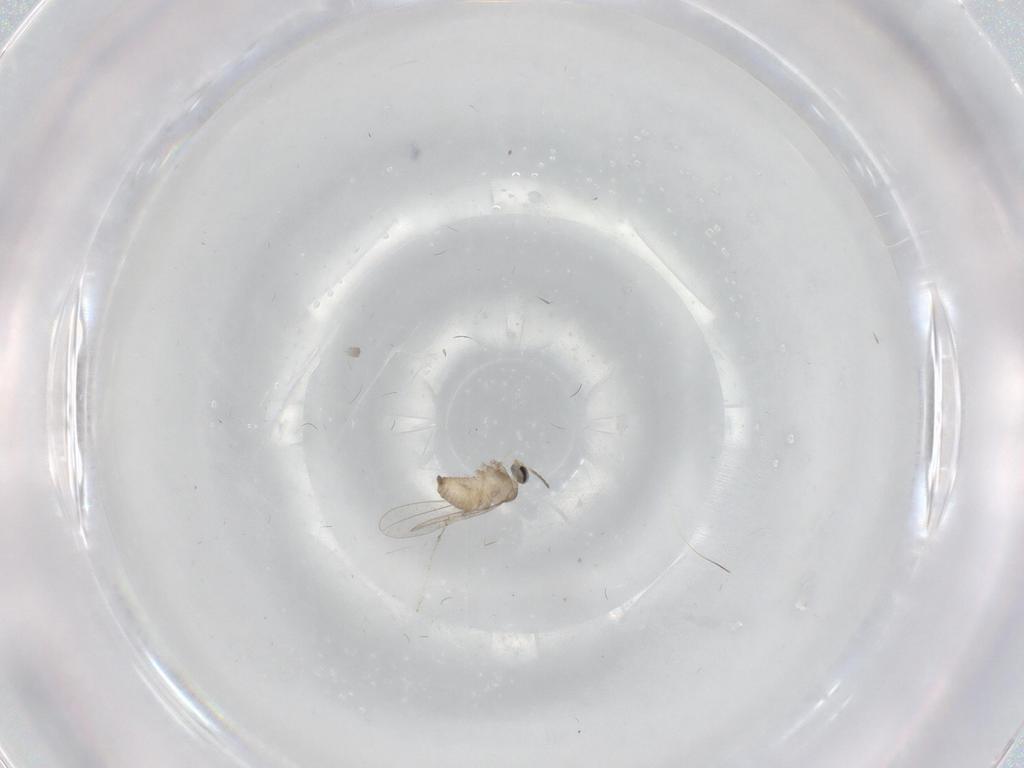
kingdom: Animalia
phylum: Arthropoda
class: Insecta
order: Diptera
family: Cecidomyiidae
